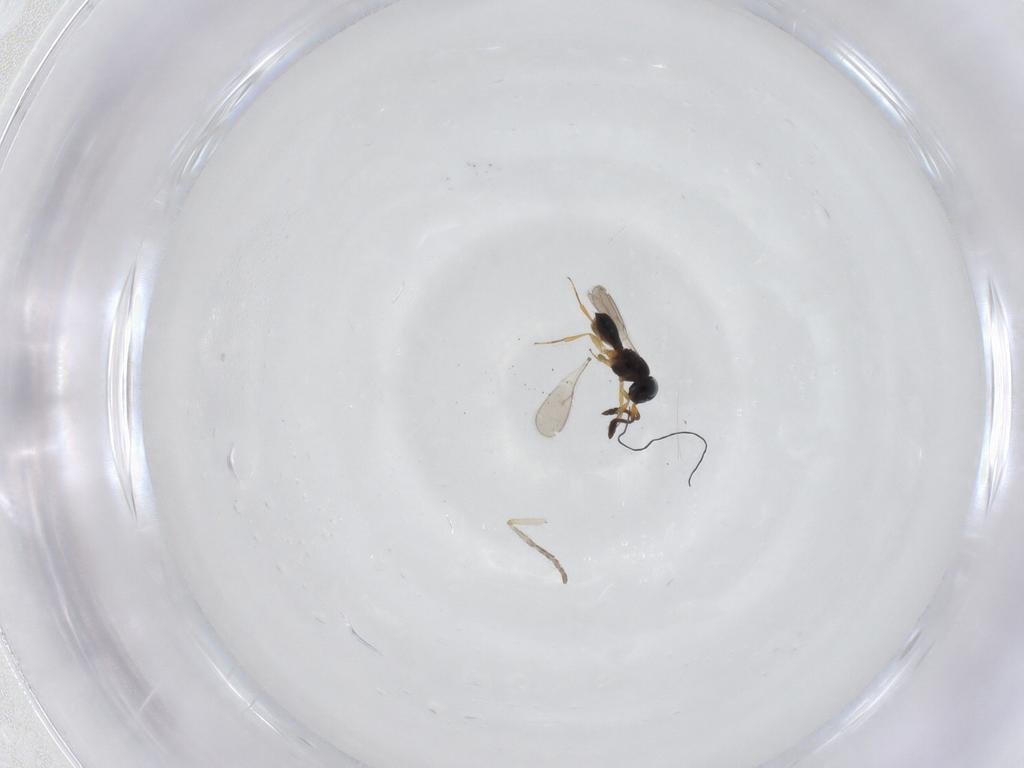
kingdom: Animalia
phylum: Arthropoda
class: Insecta
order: Hymenoptera
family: Scelionidae
